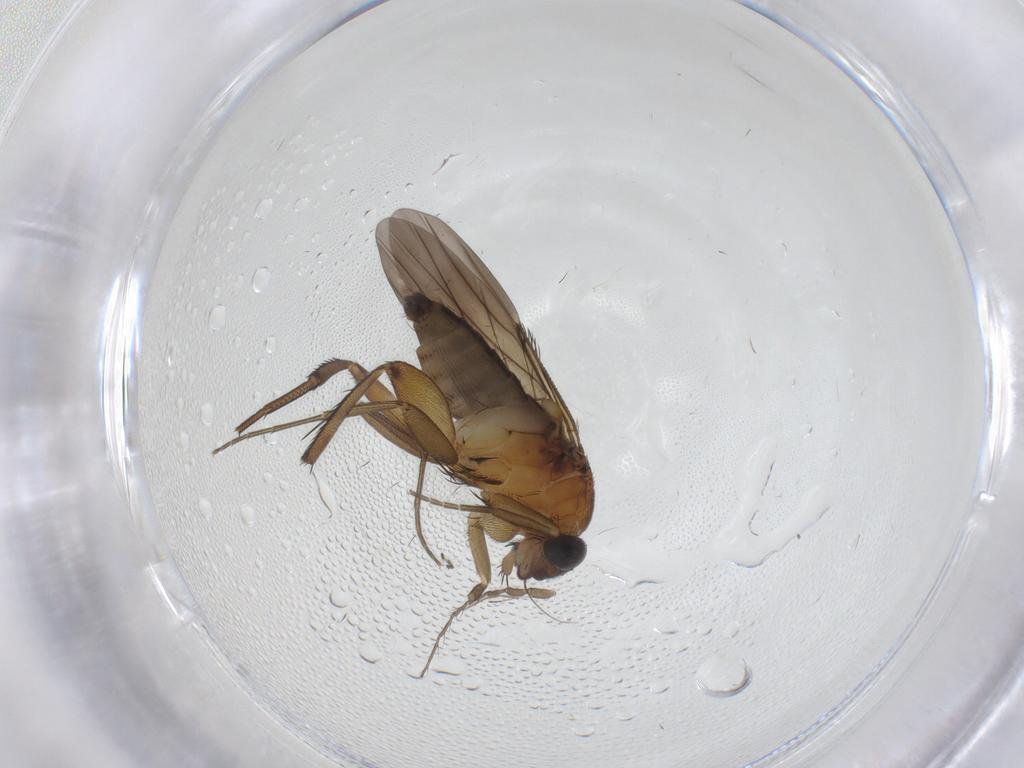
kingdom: Animalia
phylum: Arthropoda
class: Insecta
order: Diptera
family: Phoridae
